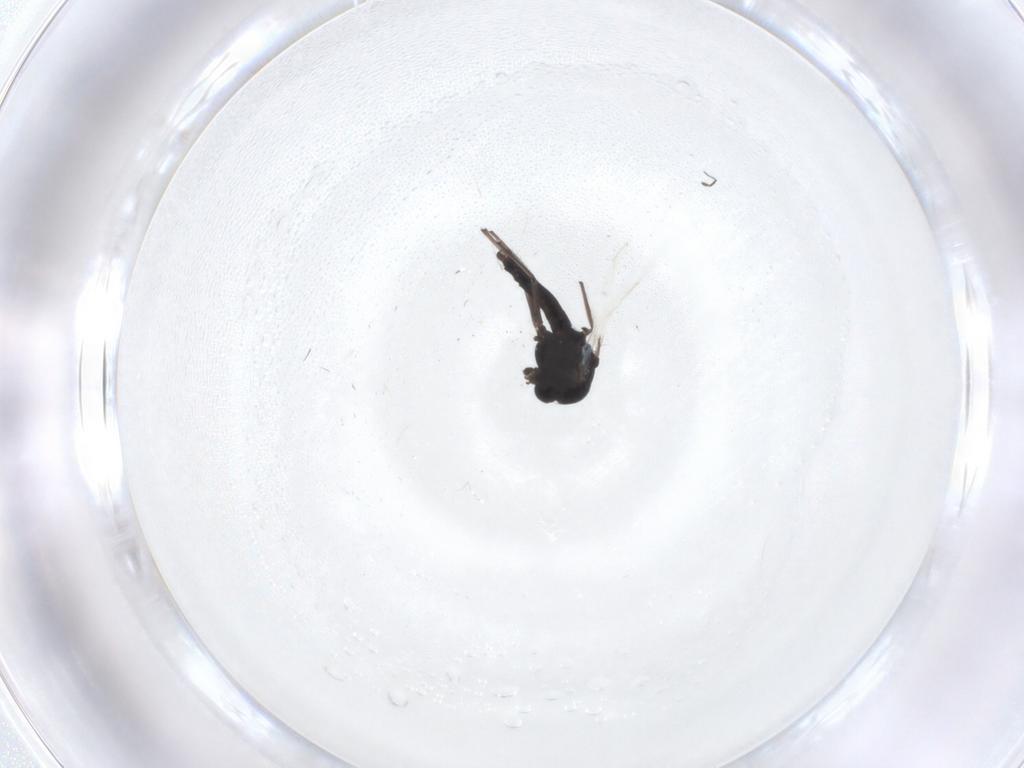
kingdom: Animalia
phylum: Arthropoda
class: Insecta
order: Diptera
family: Chironomidae
